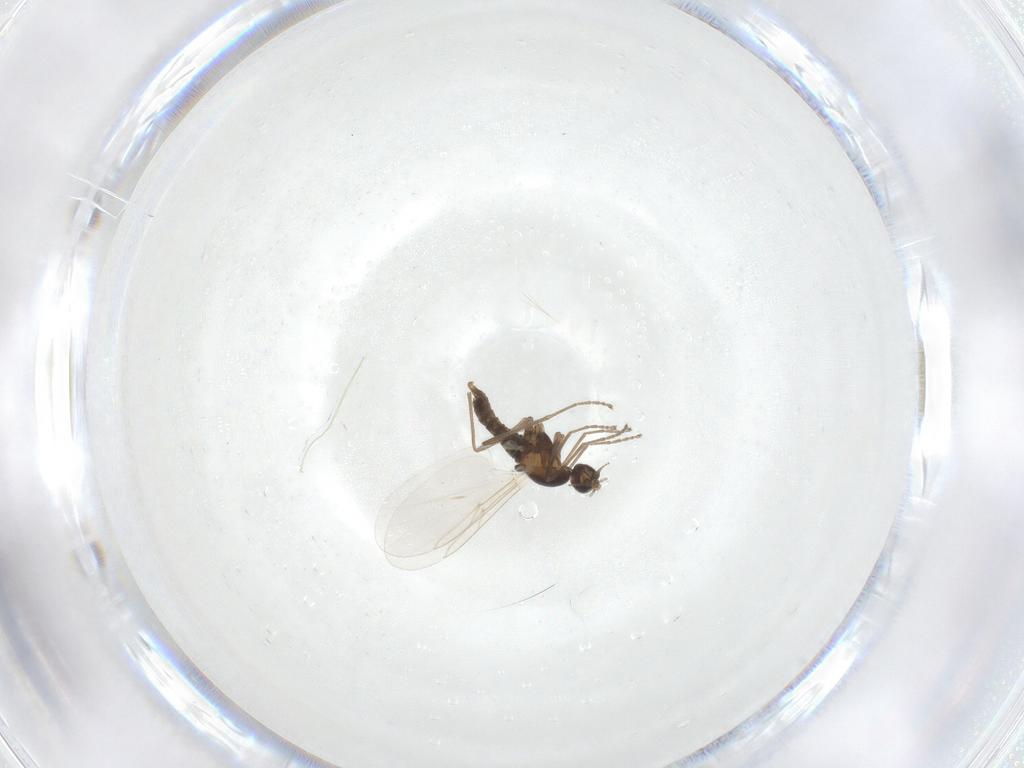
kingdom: Animalia
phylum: Arthropoda
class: Insecta
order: Diptera
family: Cecidomyiidae
